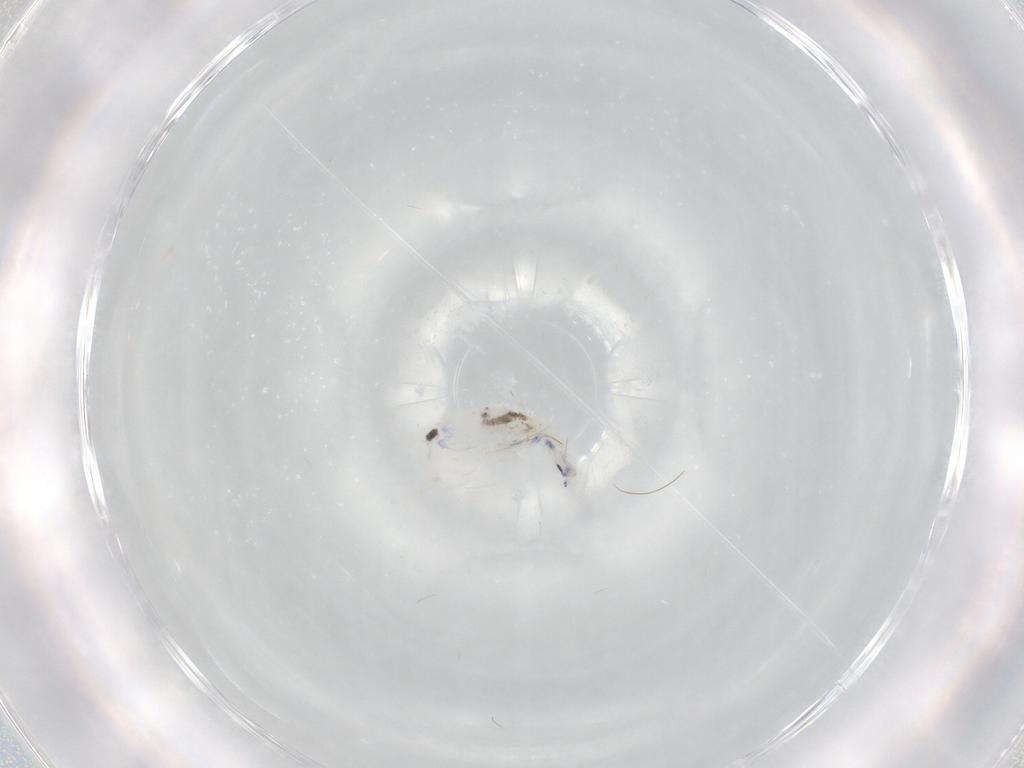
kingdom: Animalia
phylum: Arthropoda
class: Collembola
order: Entomobryomorpha
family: Entomobryidae
